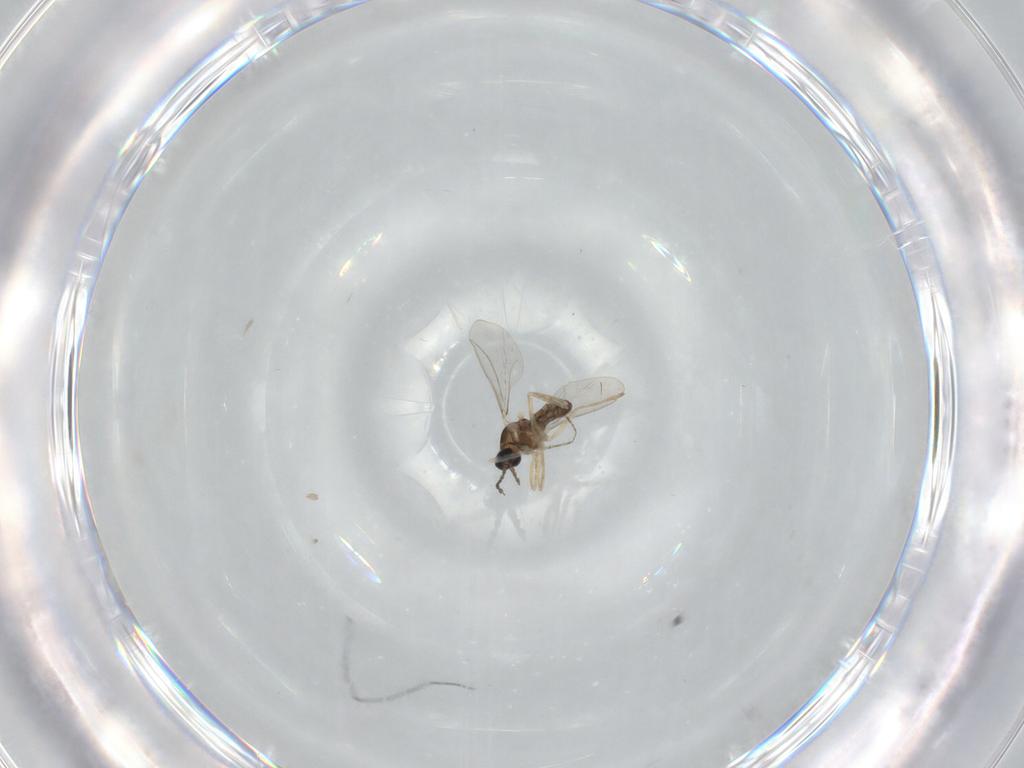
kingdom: Animalia
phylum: Arthropoda
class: Insecta
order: Diptera
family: Cecidomyiidae
